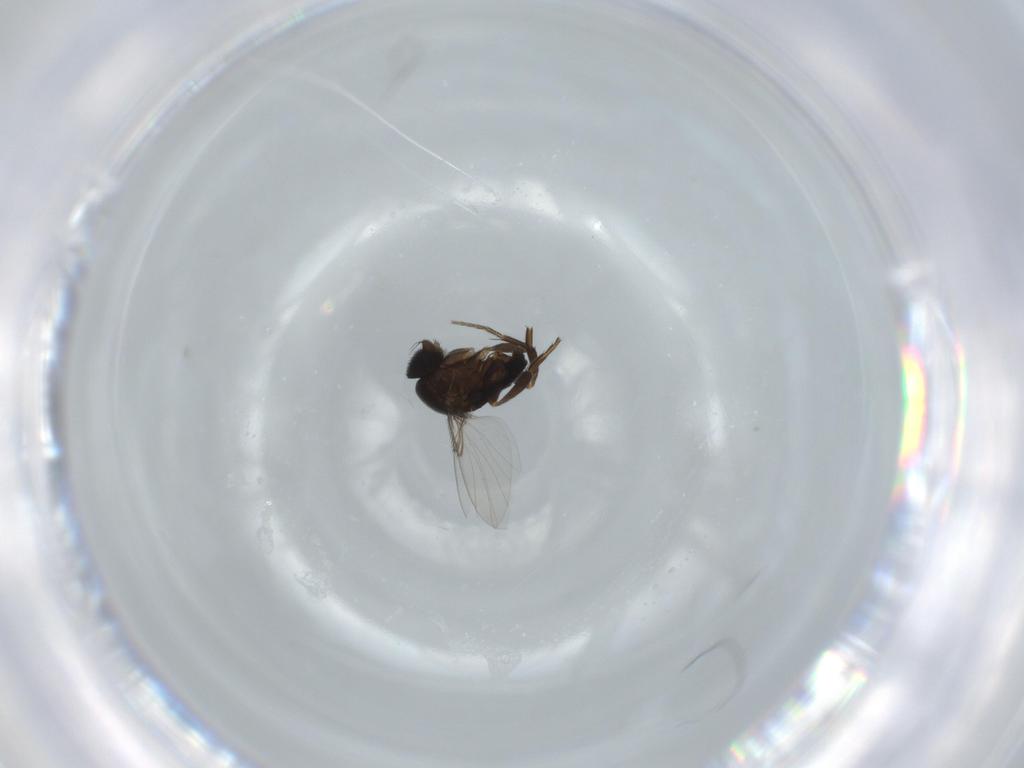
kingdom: Animalia
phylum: Arthropoda
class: Insecta
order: Diptera
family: Phoridae
